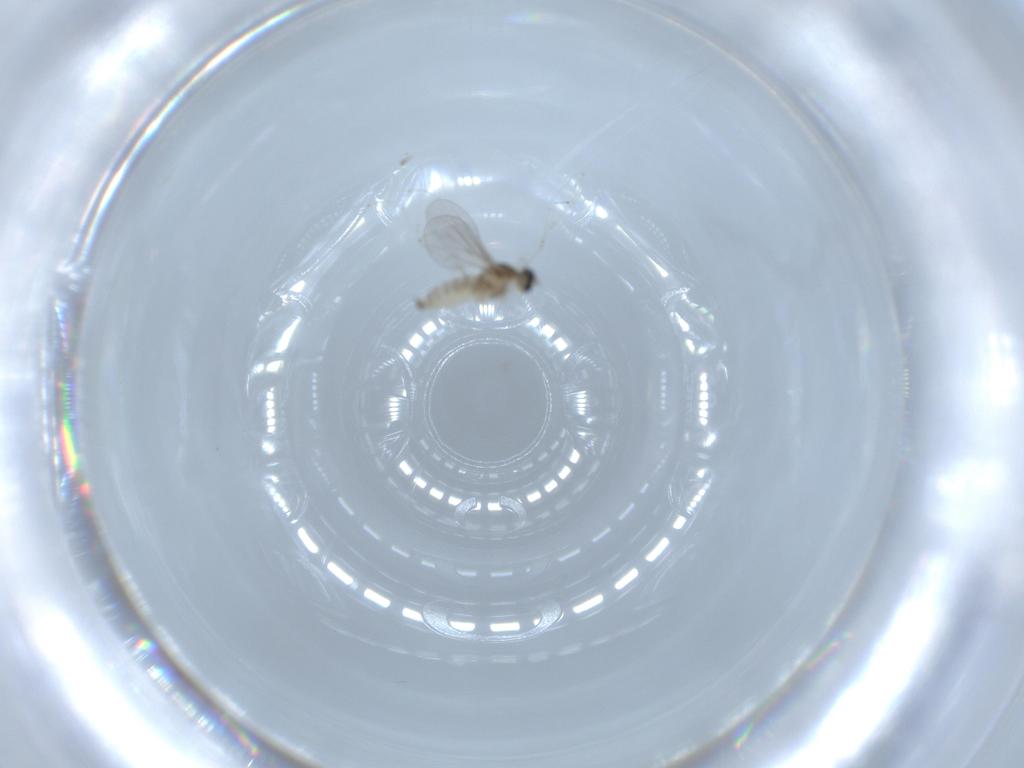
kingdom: Animalia
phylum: Arthropoda
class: Insecta
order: Diptera
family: Cecidomyiidae
